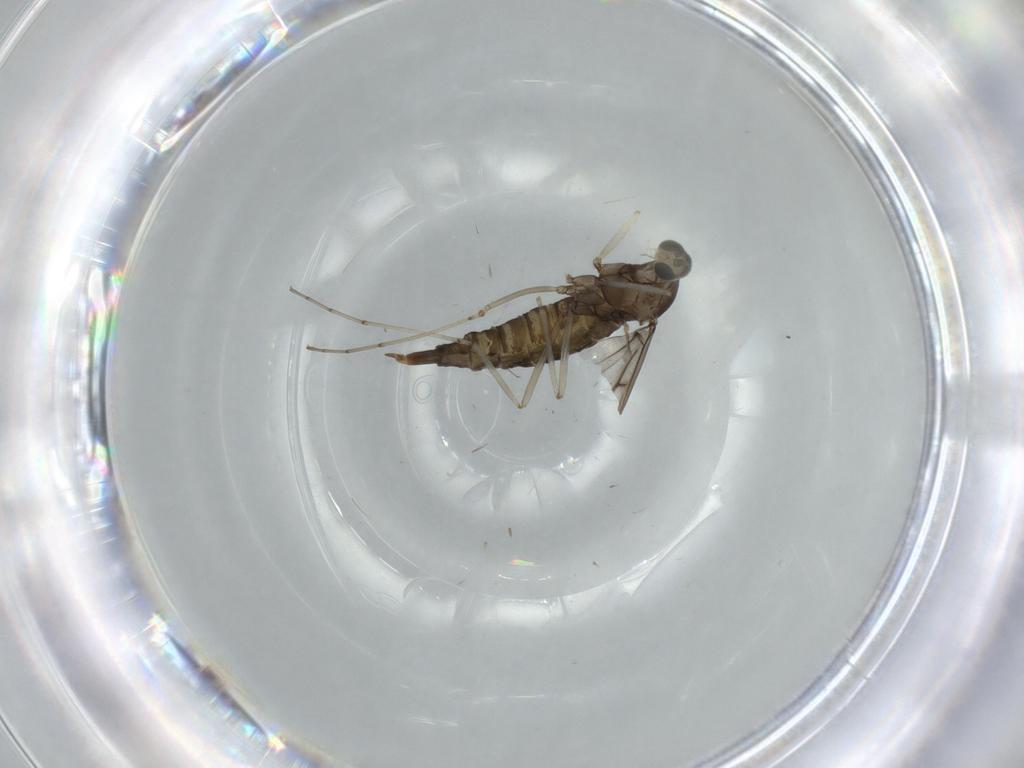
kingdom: Animalia
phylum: Arthropoda
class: Insecta
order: Diptera
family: Cecidomyiidae
